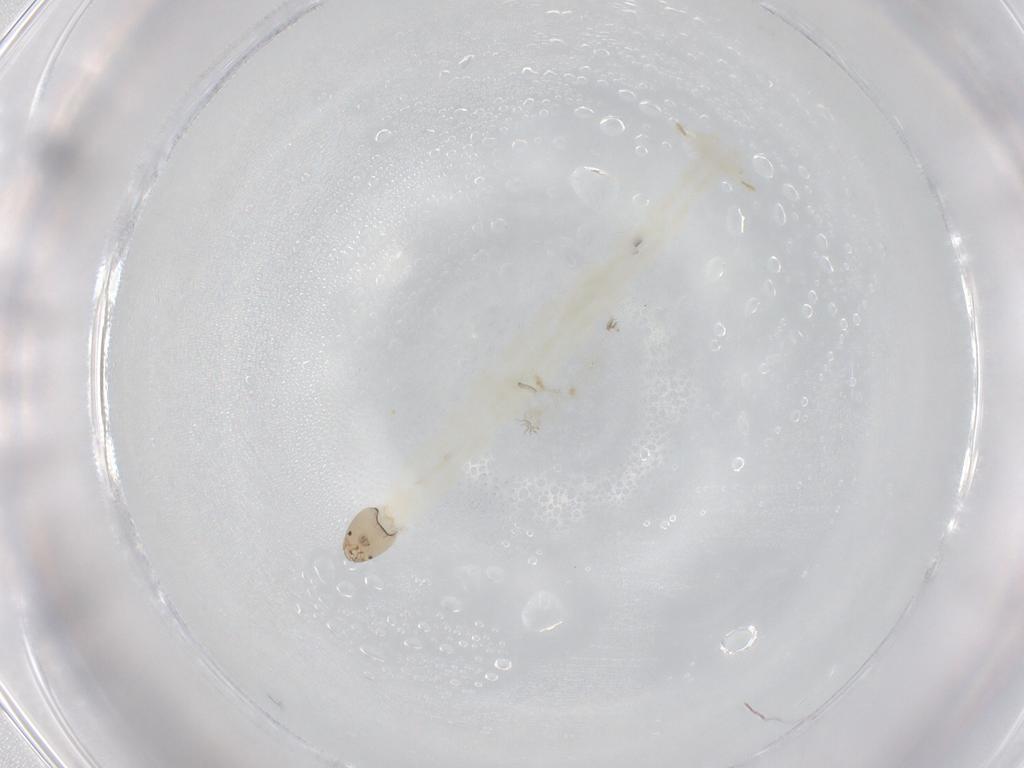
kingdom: Animalia
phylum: Arthropoda
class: Insecta
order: Diptera
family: Chironomidae
